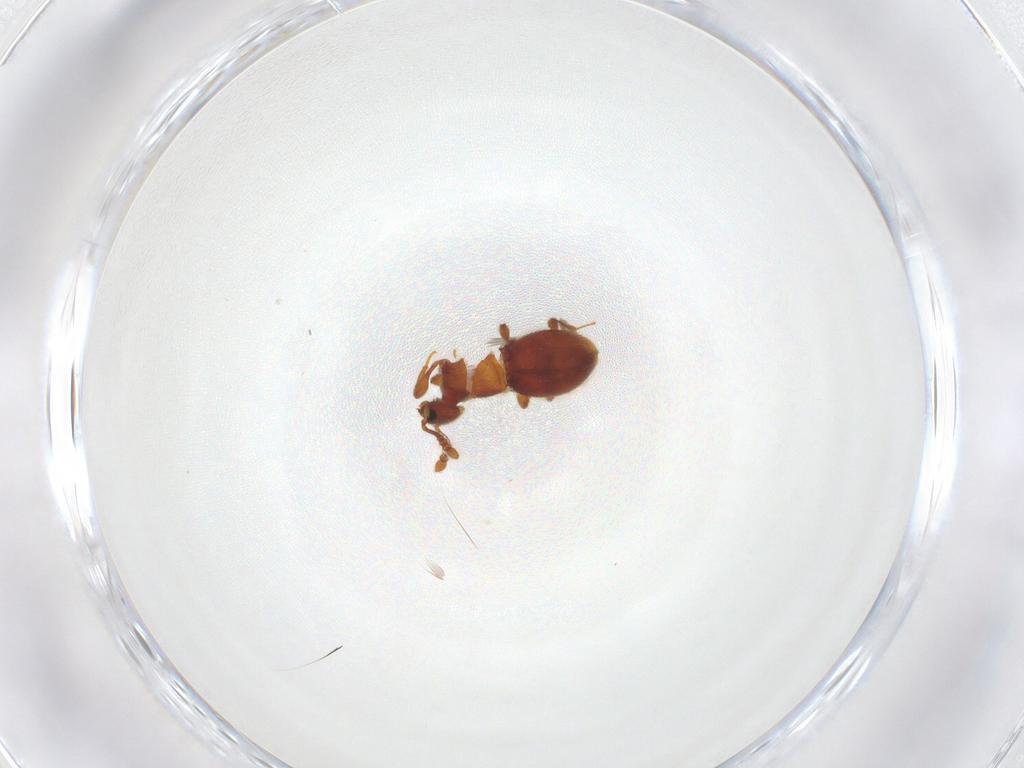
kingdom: Animalia
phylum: Arthropoda
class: Insecta
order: Coleoptera
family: Staphylinidae
